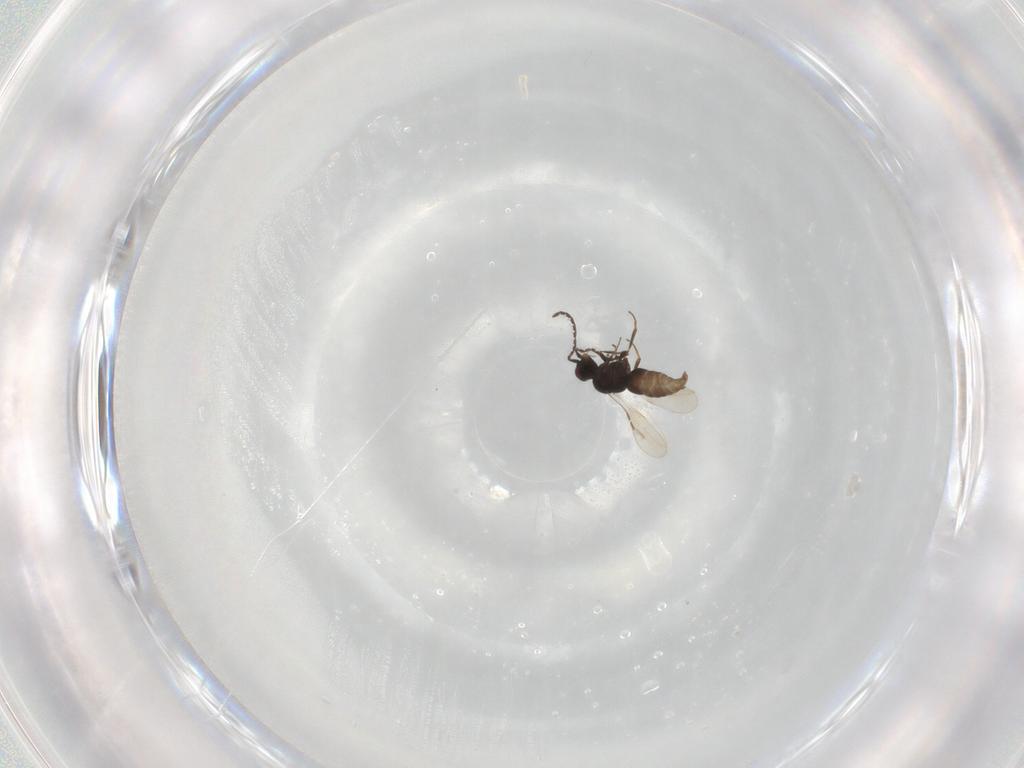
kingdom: Animalia
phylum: Arthropoda
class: Insecta
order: Hymenoptera
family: Ceraphronidae
